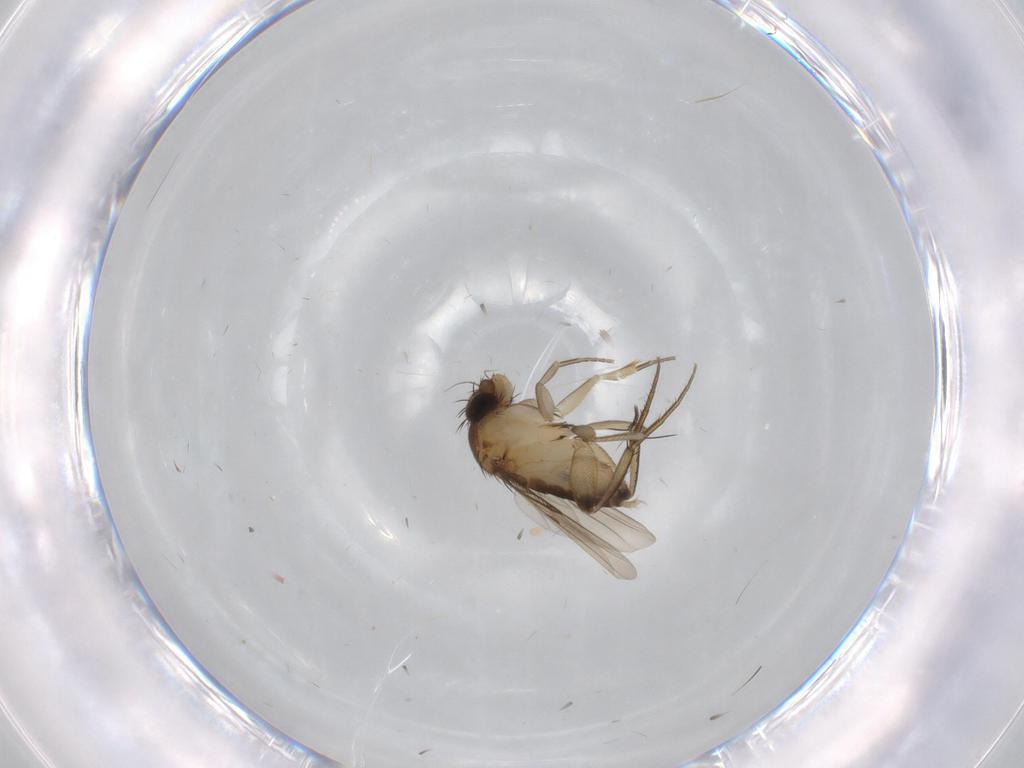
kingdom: Animalia
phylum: Arthropoda
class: Insecta
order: Diptera
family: Phoridae
